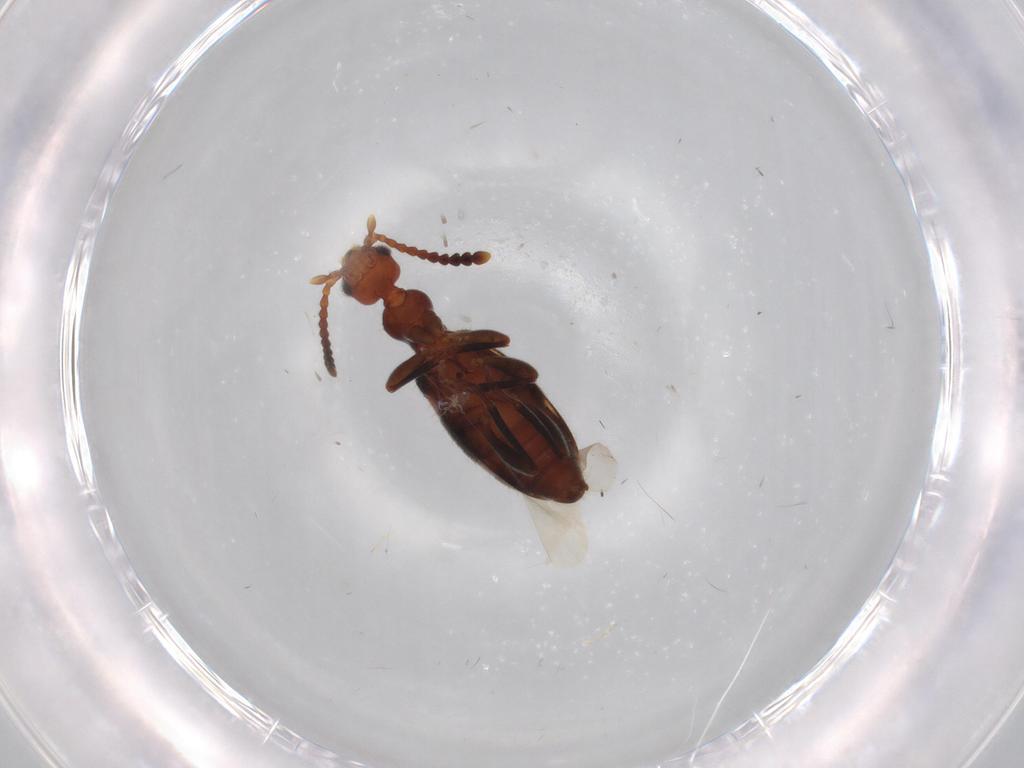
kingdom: Animalia
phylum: Arthropoda
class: Insecta
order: Coleoptera
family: Anthicidae
